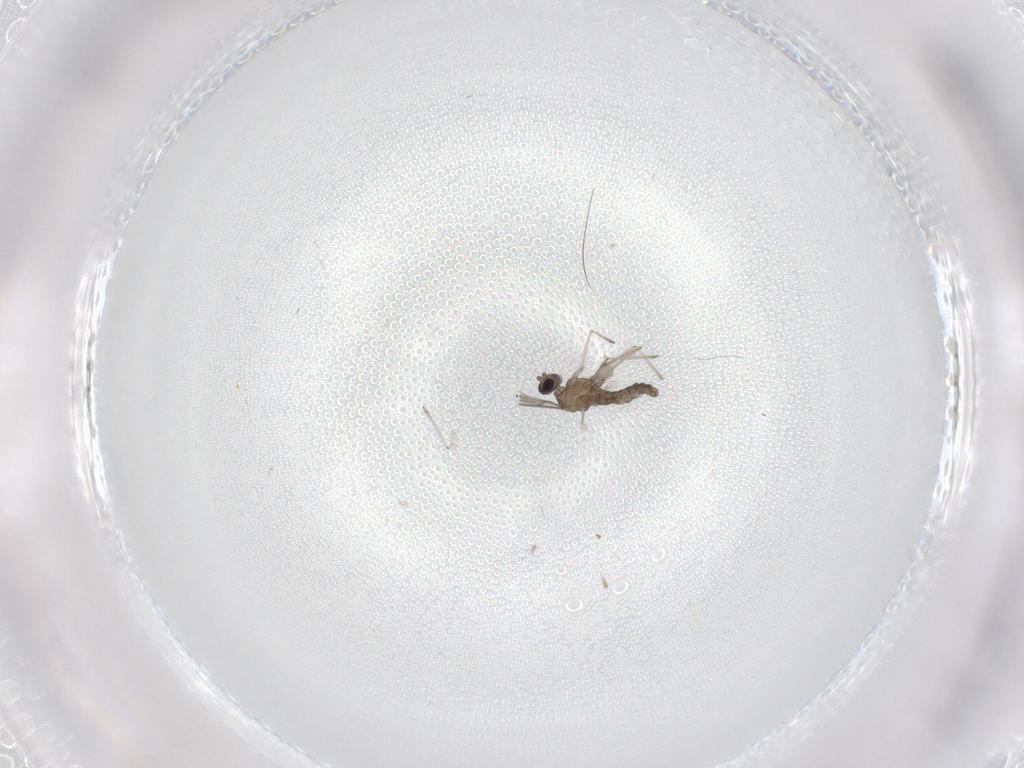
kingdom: Animalia
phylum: Arthropoda
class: Insecta
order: Diptera
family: Cecidomyiidae
